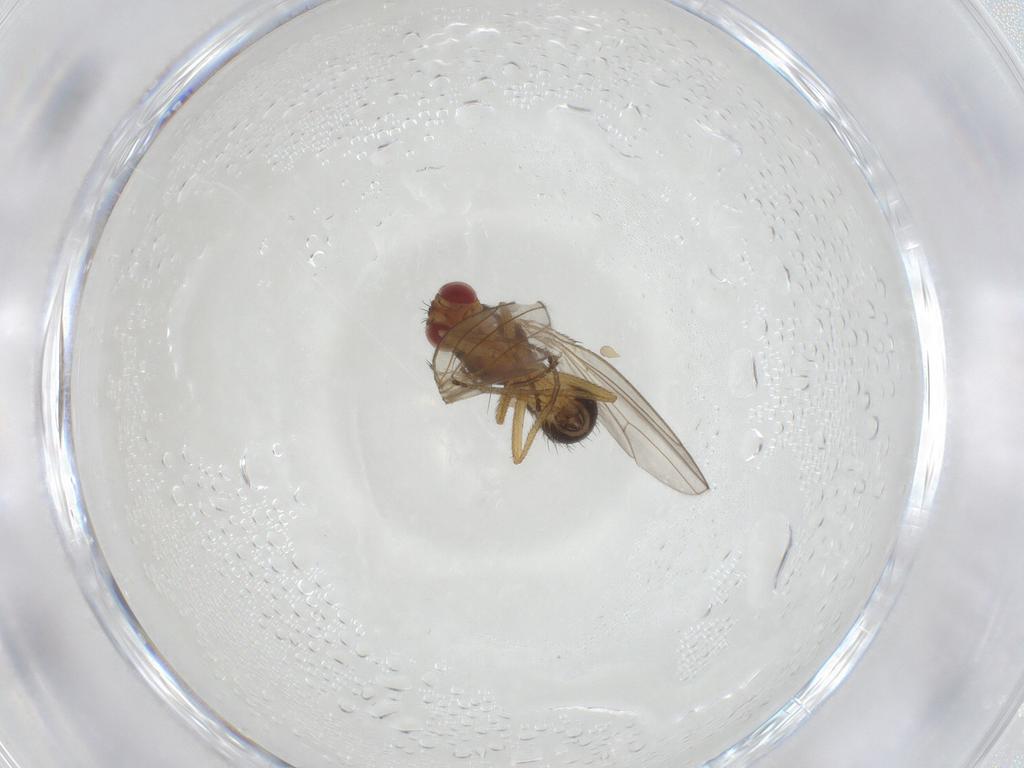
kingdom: Animalia
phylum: Arthropoda
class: Insecta
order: Diptera
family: Drosophilidae
